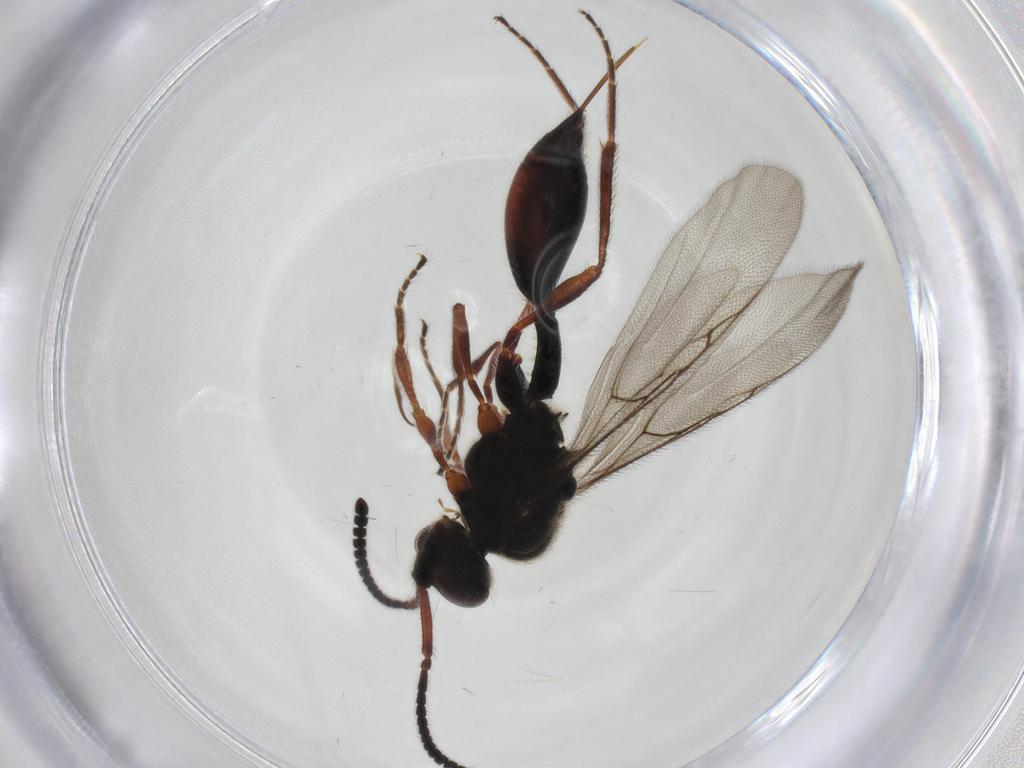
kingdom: Animalia
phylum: Arthropoda
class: Insecta
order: Hymenoptera
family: Diapriidae
